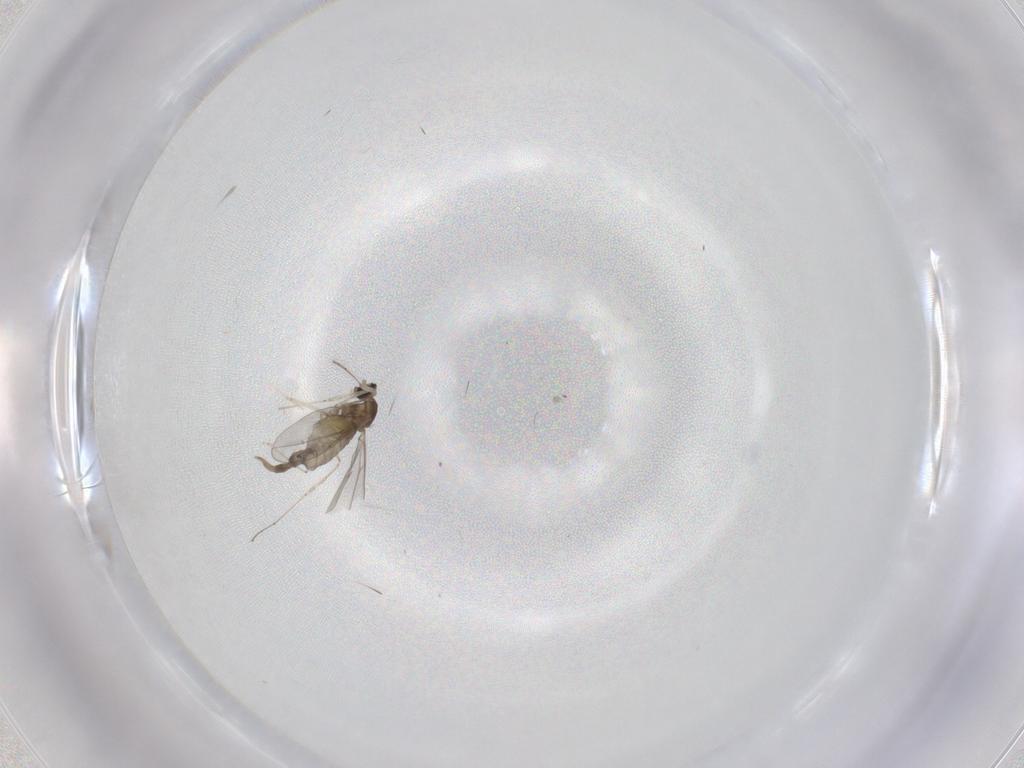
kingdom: Animalia
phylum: Arthropoda
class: Insecta
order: Diptera
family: Cecidomyiidae
